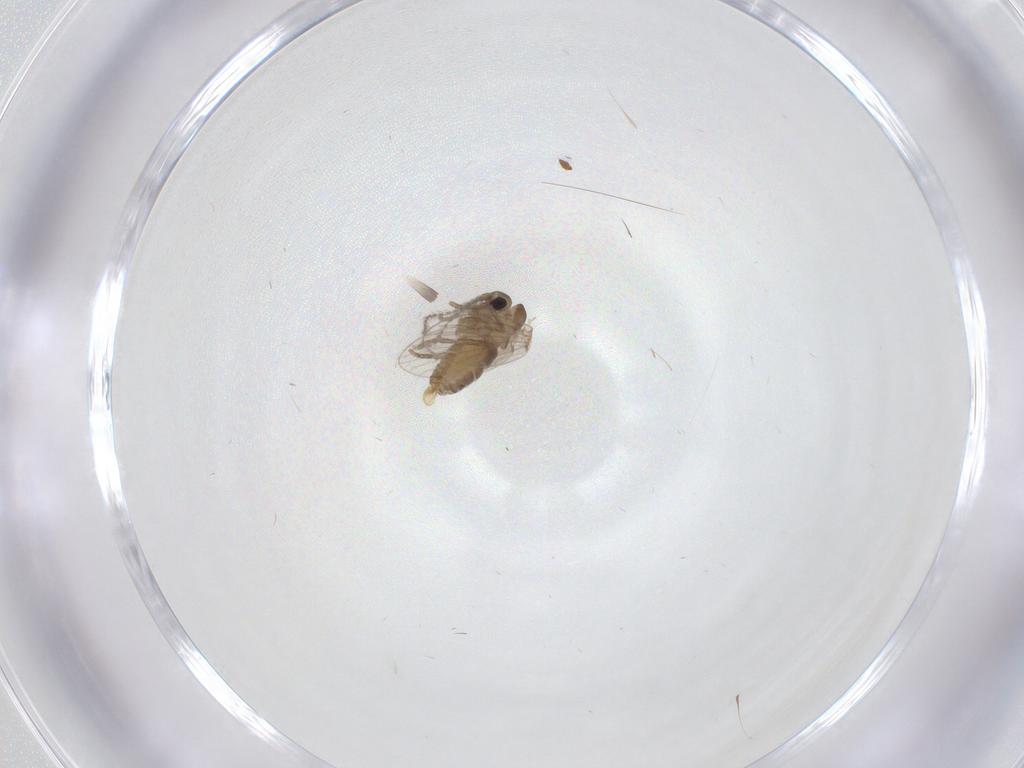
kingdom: Animalia
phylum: Arthropoda
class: Insecta
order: Diptera
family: Psychodidae
